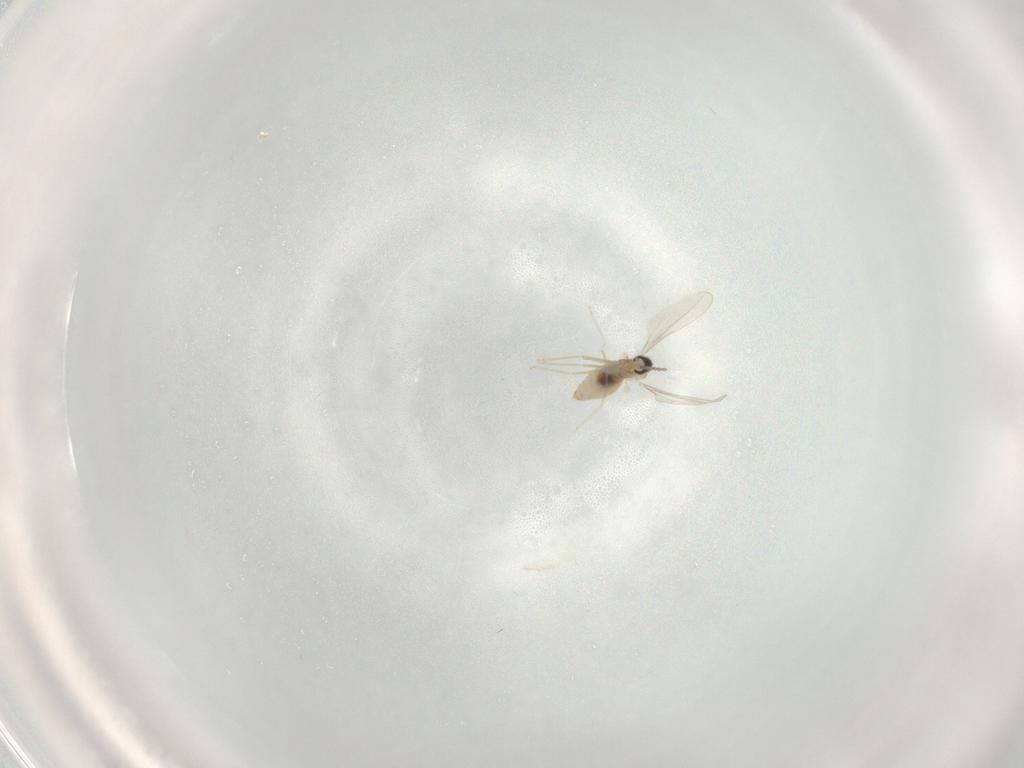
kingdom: Animalia
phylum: Arthropoda
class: Insecta
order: Diptera
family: Cecidomyiidae
